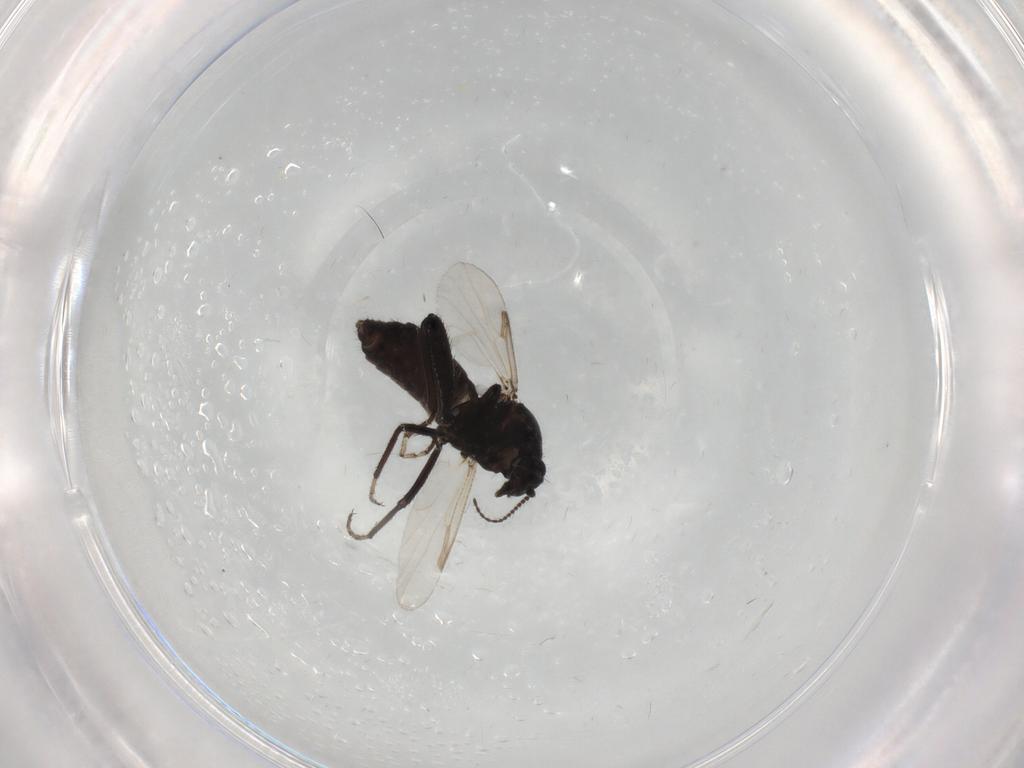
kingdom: Animalia
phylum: Arthropoda
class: Insecta
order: Diptera
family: Ceratopogonidae
